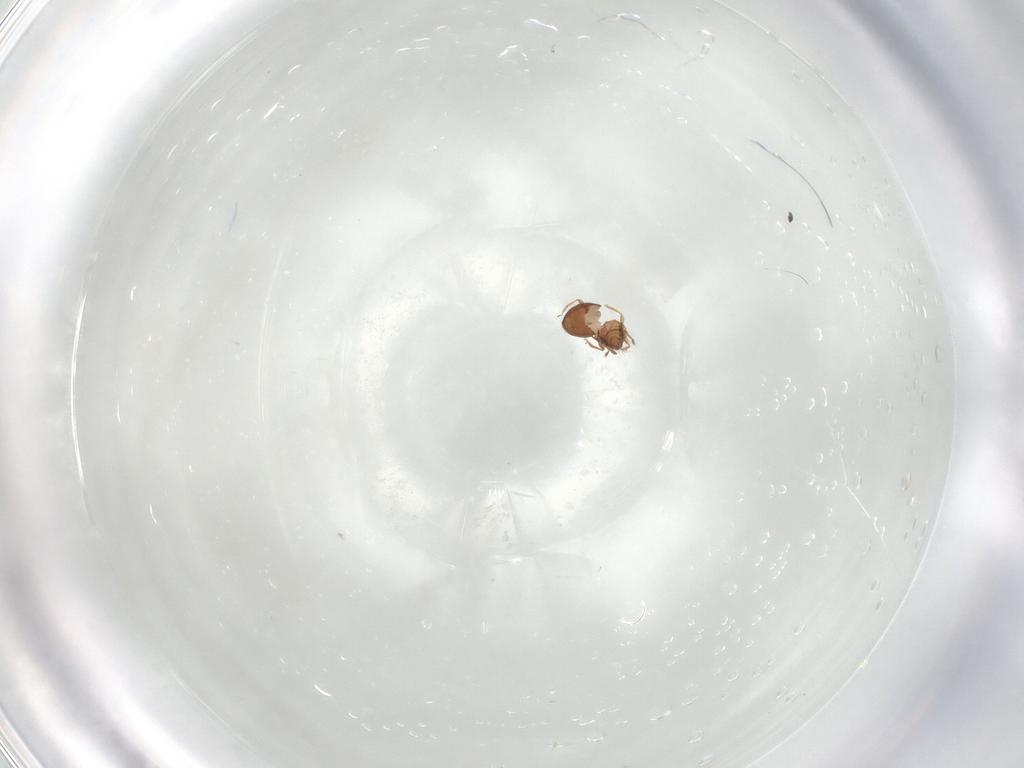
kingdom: Animalia
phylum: Arthropoda
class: Arachnida
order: Sarcoptiformes
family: Oribatulidae
